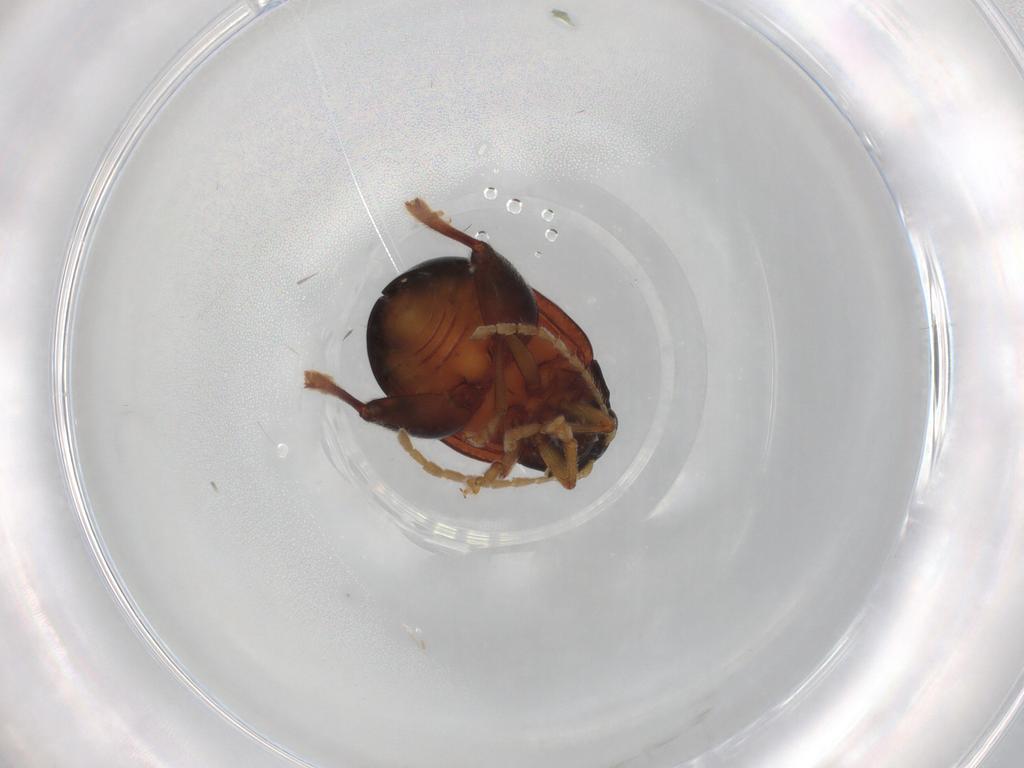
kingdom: Animalia
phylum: Arthropoda
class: Insecta
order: Coleoptera
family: Chrysomelidae
